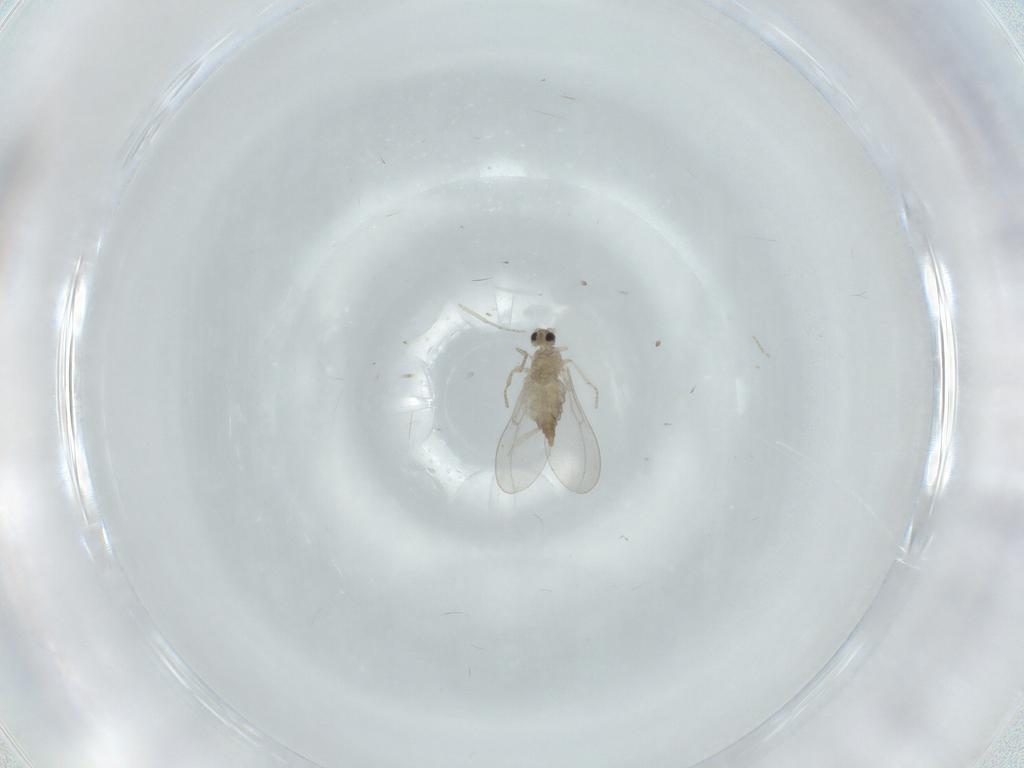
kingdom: Animalia
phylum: Arthropoda
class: Insecta
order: Diptera
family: Cecidomyiidae
